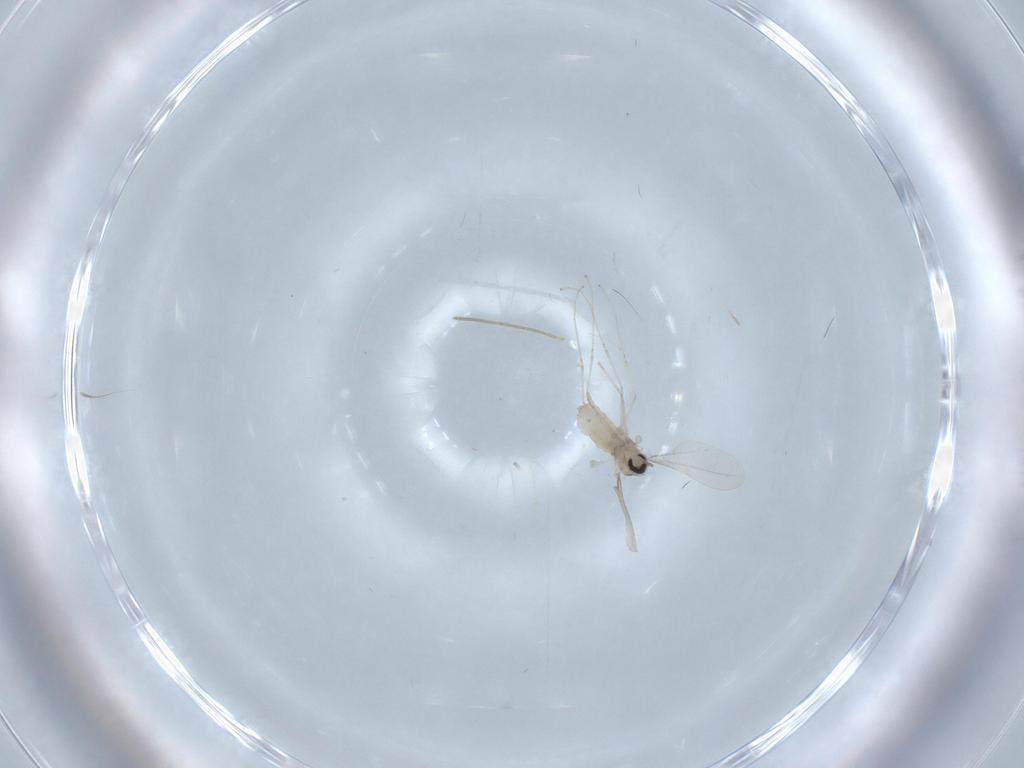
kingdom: Animalia
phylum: Arthropoda
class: Insecta
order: Diptera
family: Cecidomyiidae
